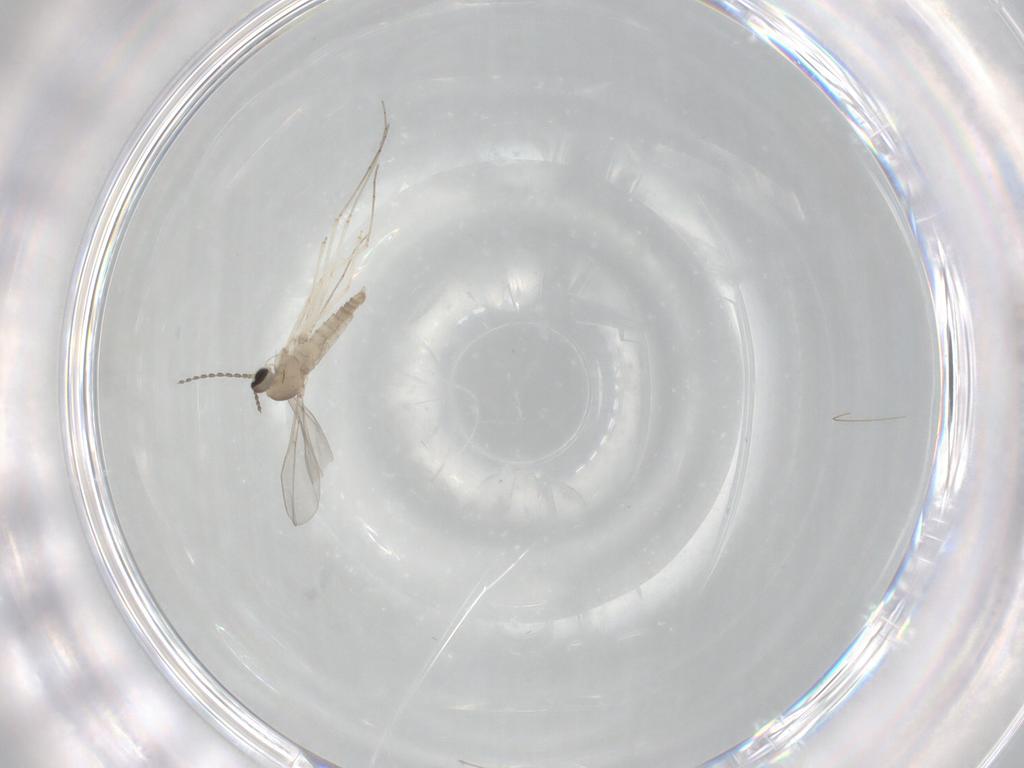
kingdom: Animalia
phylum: Arthropoda
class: Insecta
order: Diptera
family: Cecidomyiidae
